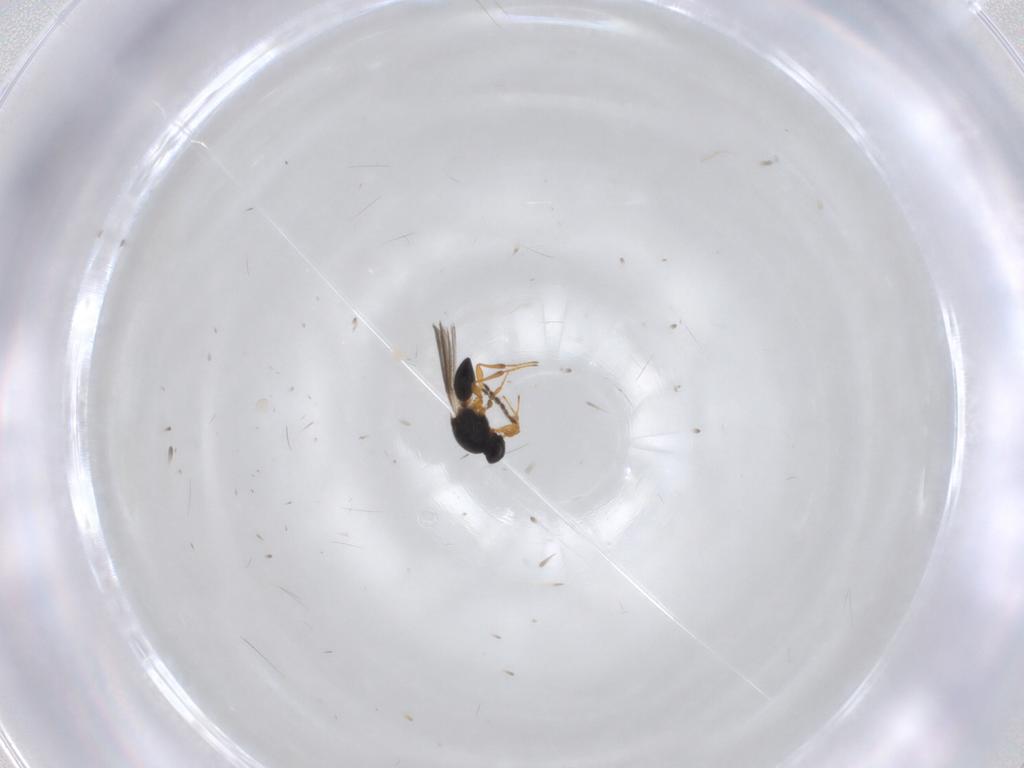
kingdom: Animalia
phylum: Arthropoda
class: Insecta
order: Hymenoptera
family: Platygastridae
